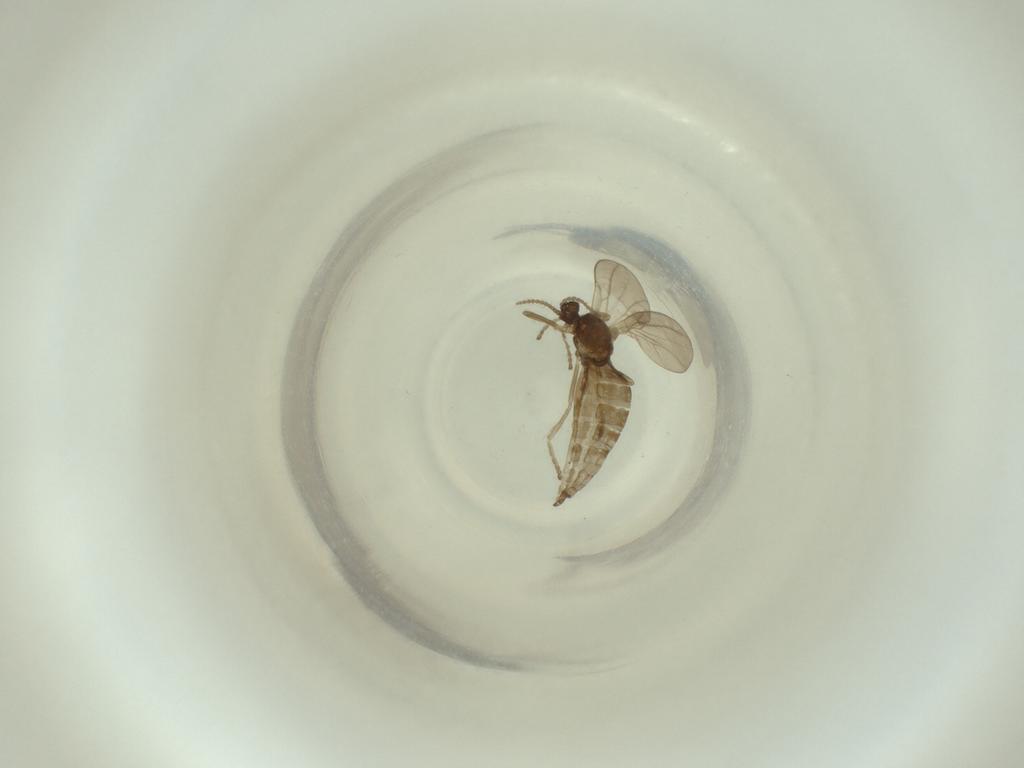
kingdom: Animalia
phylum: Arthropoda
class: Insecta
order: Diptera
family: Cecidomyiidae
